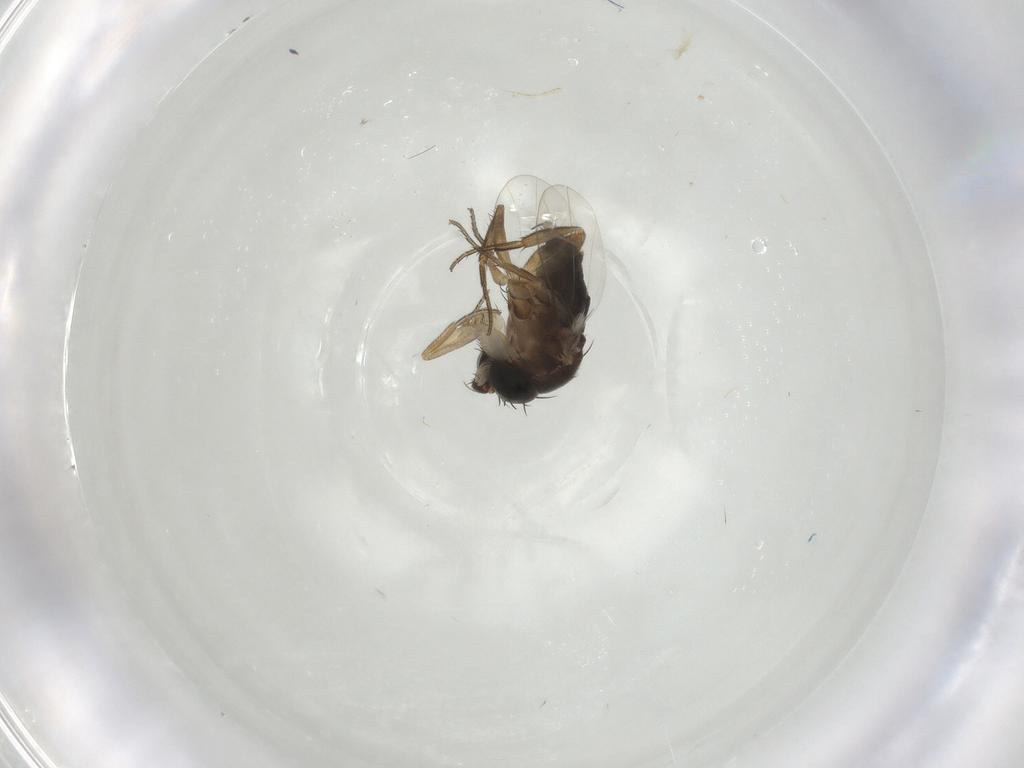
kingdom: Animalia
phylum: Arthropoda
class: Insecta
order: Diptera
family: Phoridae
